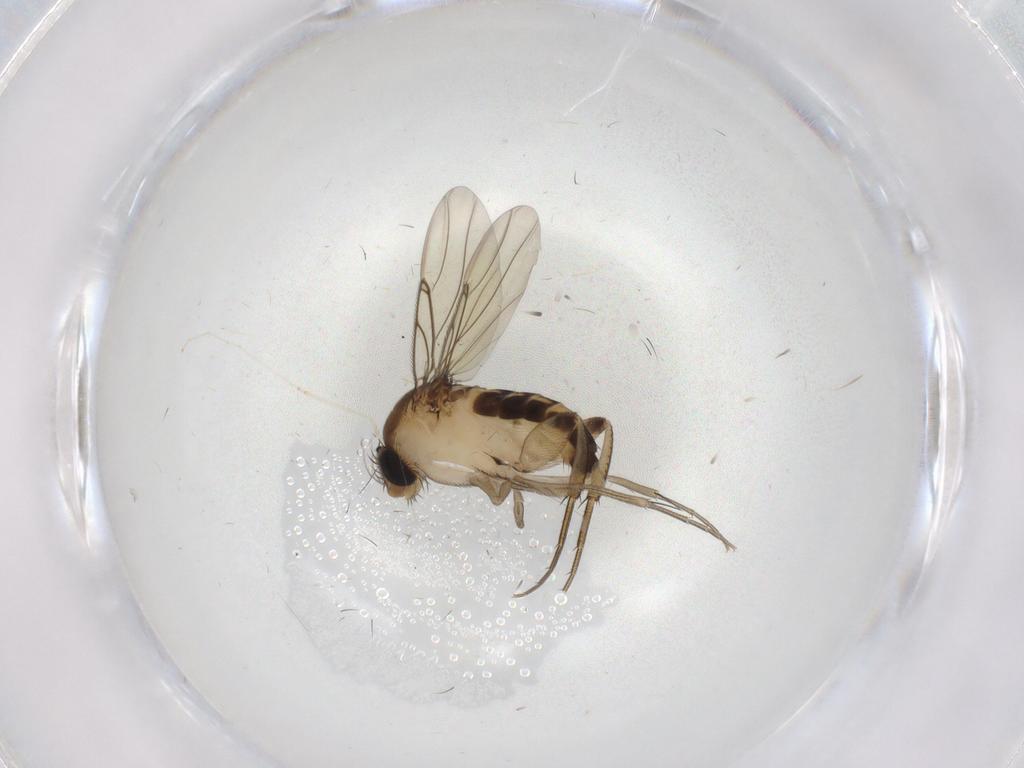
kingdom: Animalia
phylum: Arthropoda
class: Insecta
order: Diptera
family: Phoridae
